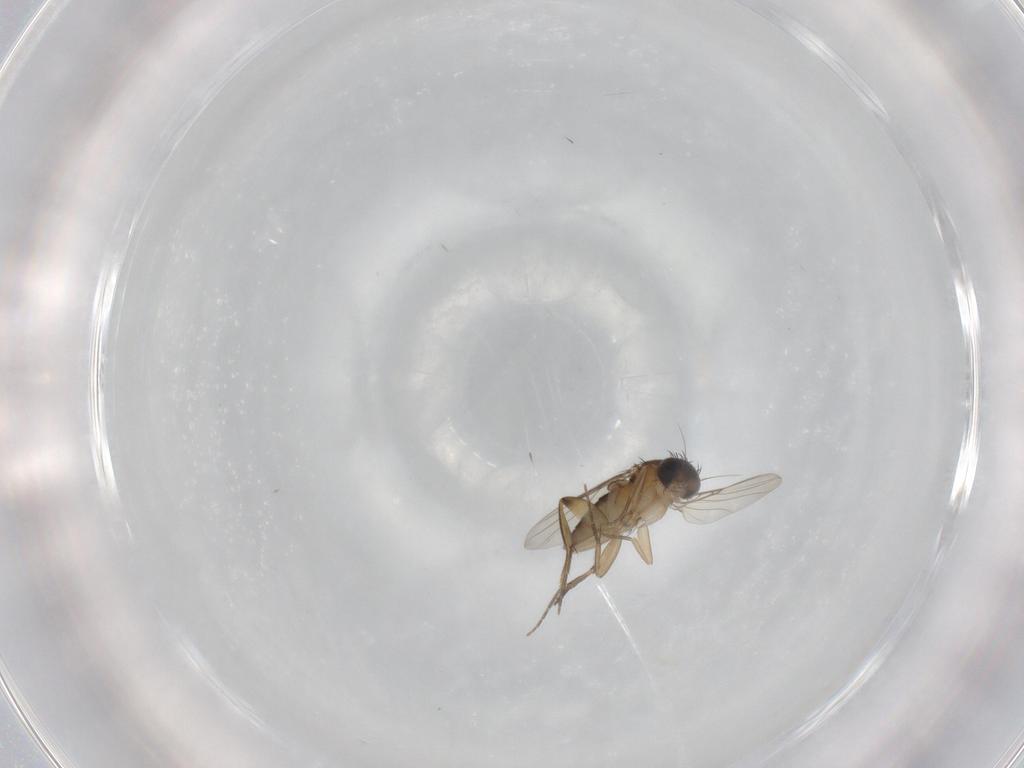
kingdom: Animalia
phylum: Arthropoda
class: Insecta
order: Diptera
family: Phoridae
